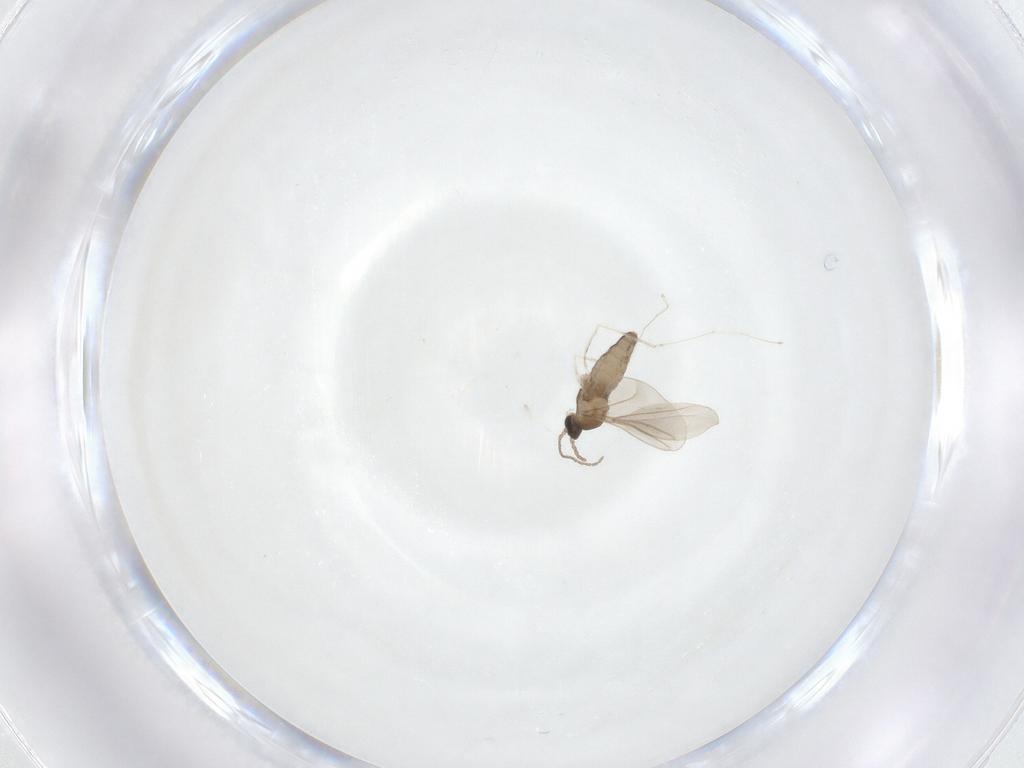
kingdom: Animalia
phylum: Arthropoda
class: Insecta
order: Diptera
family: Cecidomyiidae
